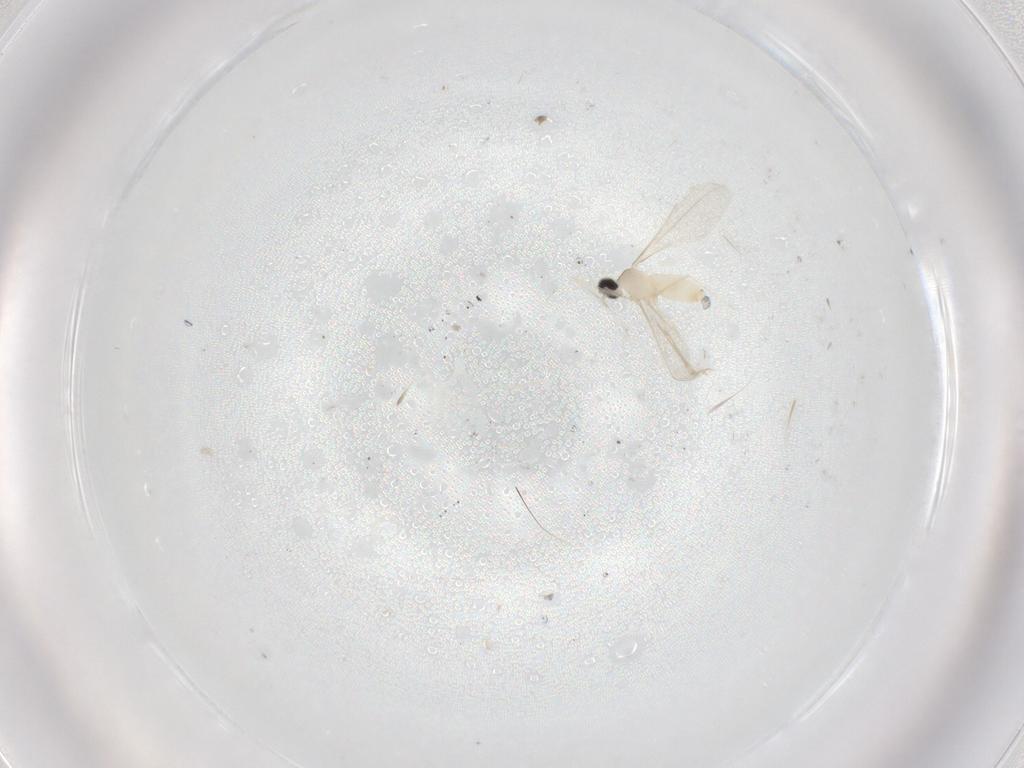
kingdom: Animalia
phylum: Arthropoda
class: Insecta
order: Diptera
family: Cecidomyiidae
